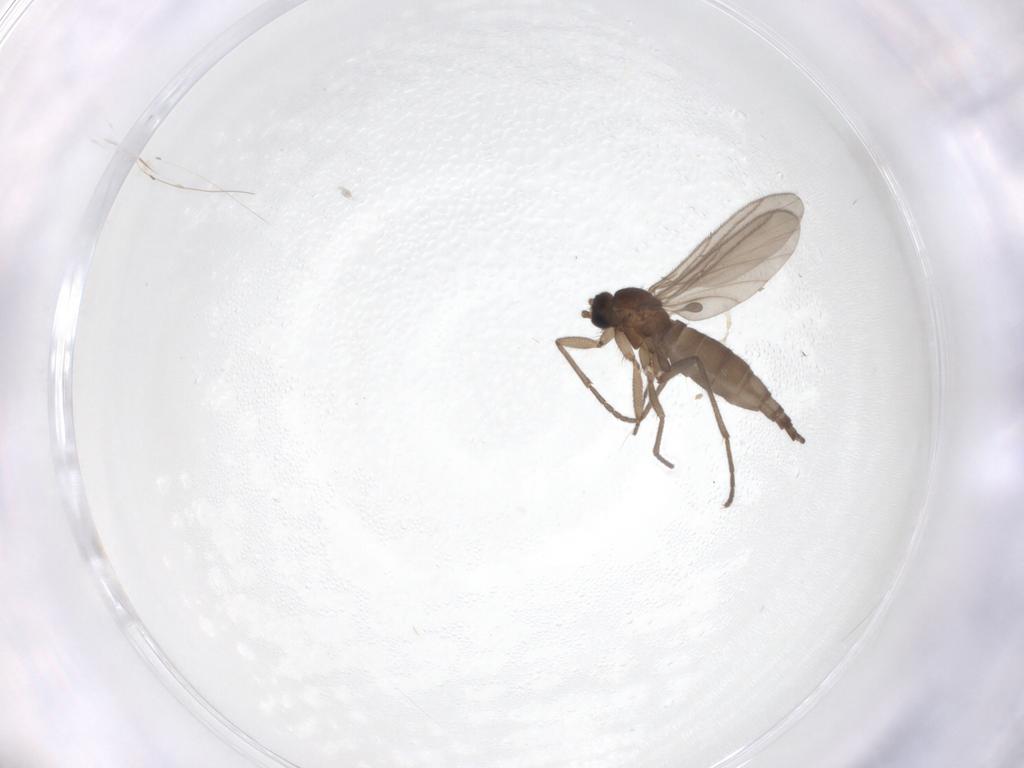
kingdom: Animalia
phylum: Arthropoda
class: Insecta
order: Diptera
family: Sciaridae
